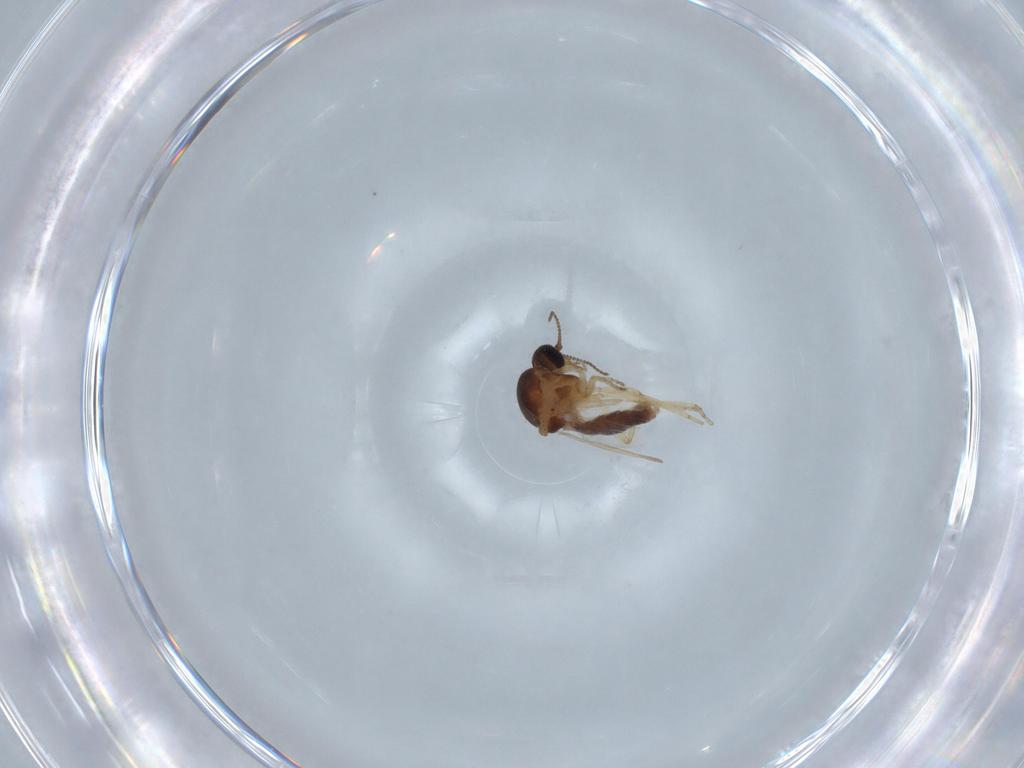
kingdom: Animalia
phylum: Arthropoda
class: Insecta
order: Diptera
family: Ceratopogonidae
